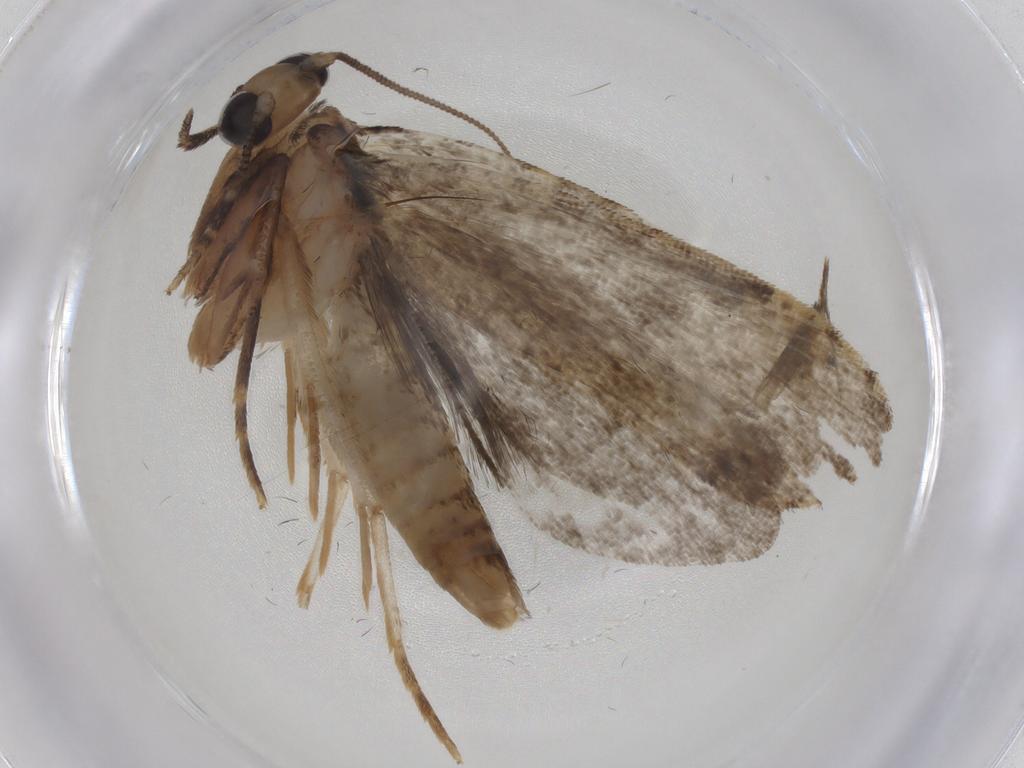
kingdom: Animalia
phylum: Arthropoda
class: Insecta
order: Lepidoptera
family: Tineidae
